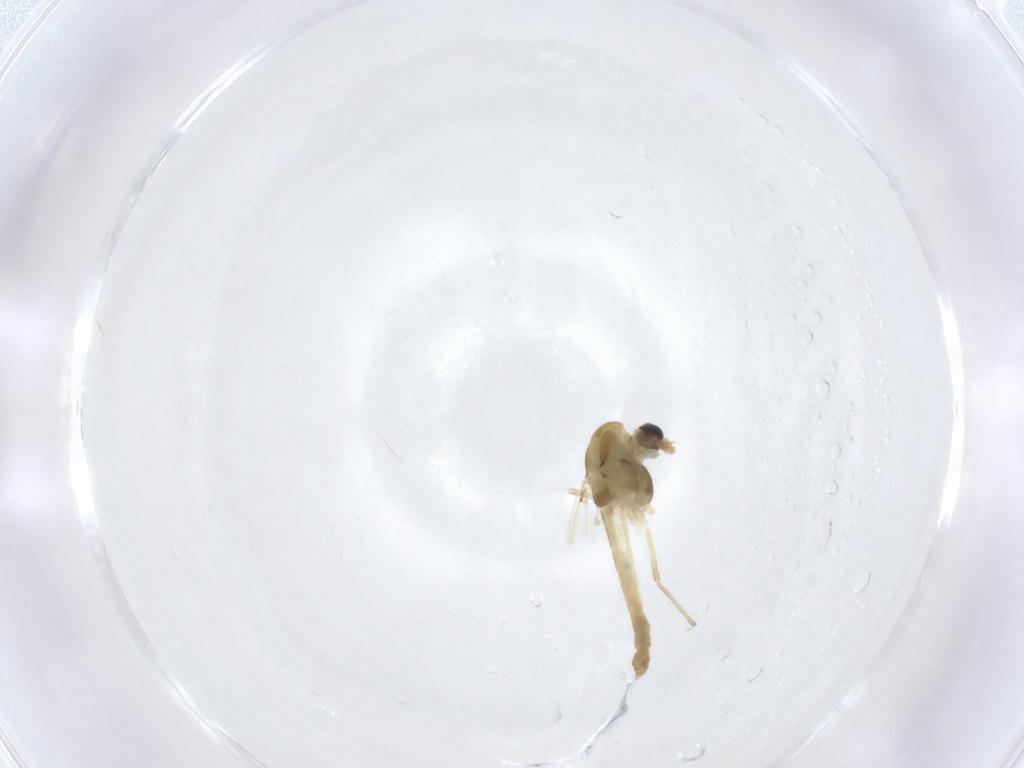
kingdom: Animalia
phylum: Arthropoda
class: Insecta
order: Diptera
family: Chironomidae
